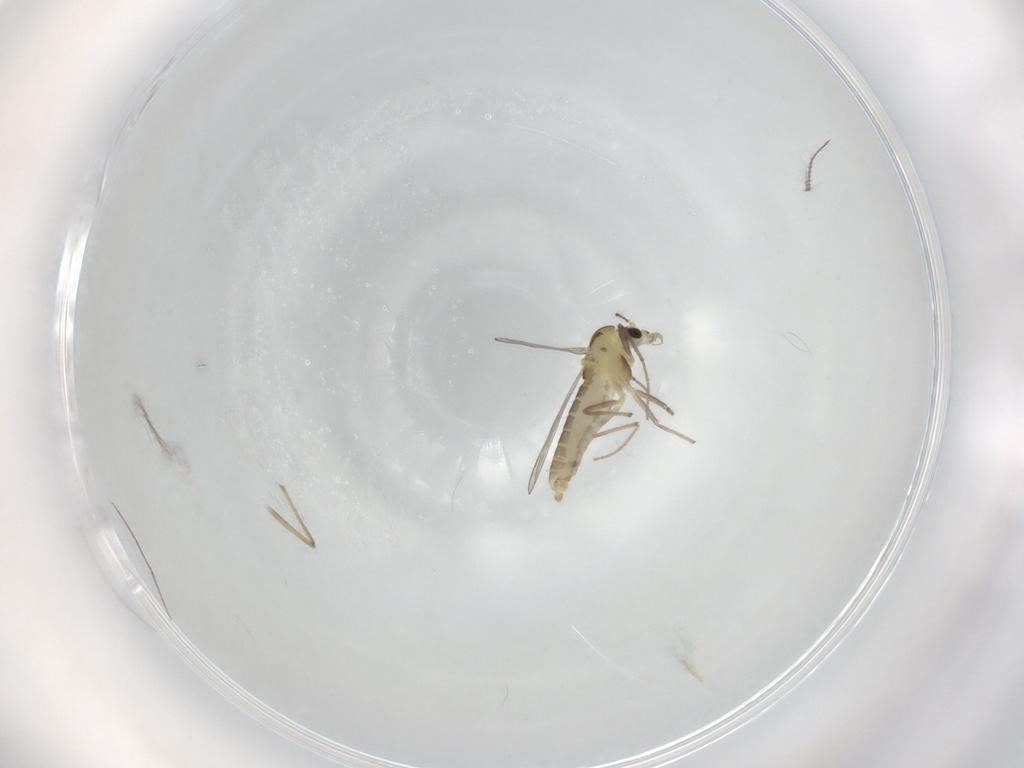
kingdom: Animalia
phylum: Arthropoda
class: Insecta
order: Diptera
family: Chironomidae
